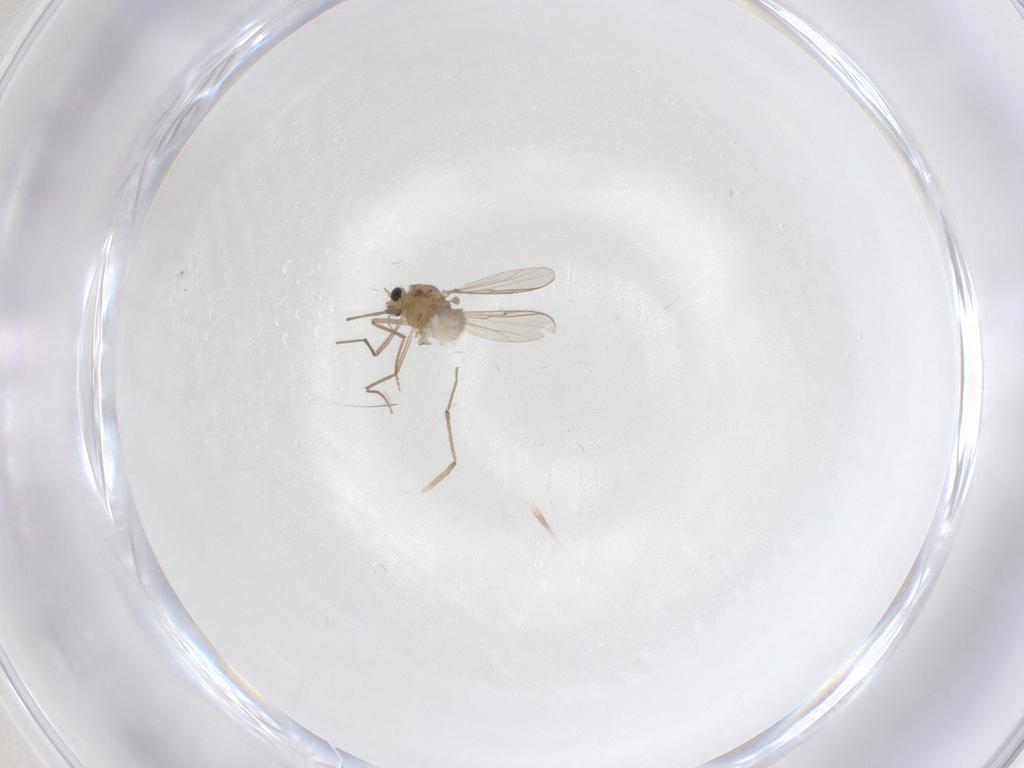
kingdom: Animalia
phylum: Arthropoda
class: Insecta
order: Diptera
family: Chironomidae
